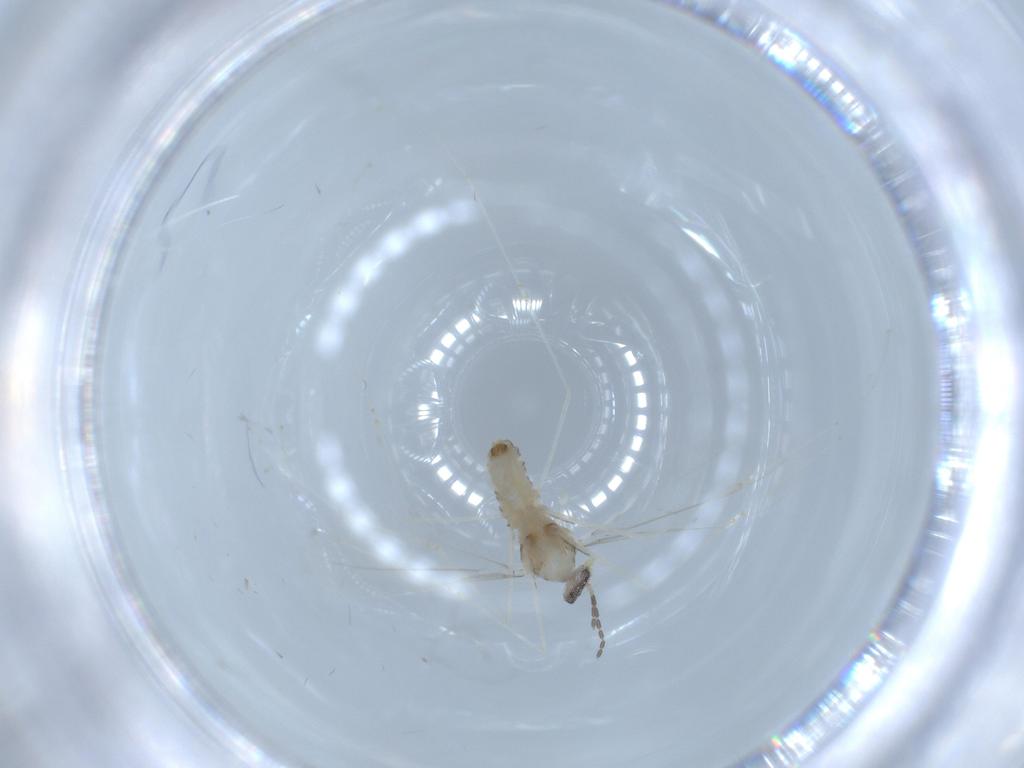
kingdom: Animalia
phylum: Arthropoda
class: Insecta
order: Diptera
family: Cecidomyiidae
